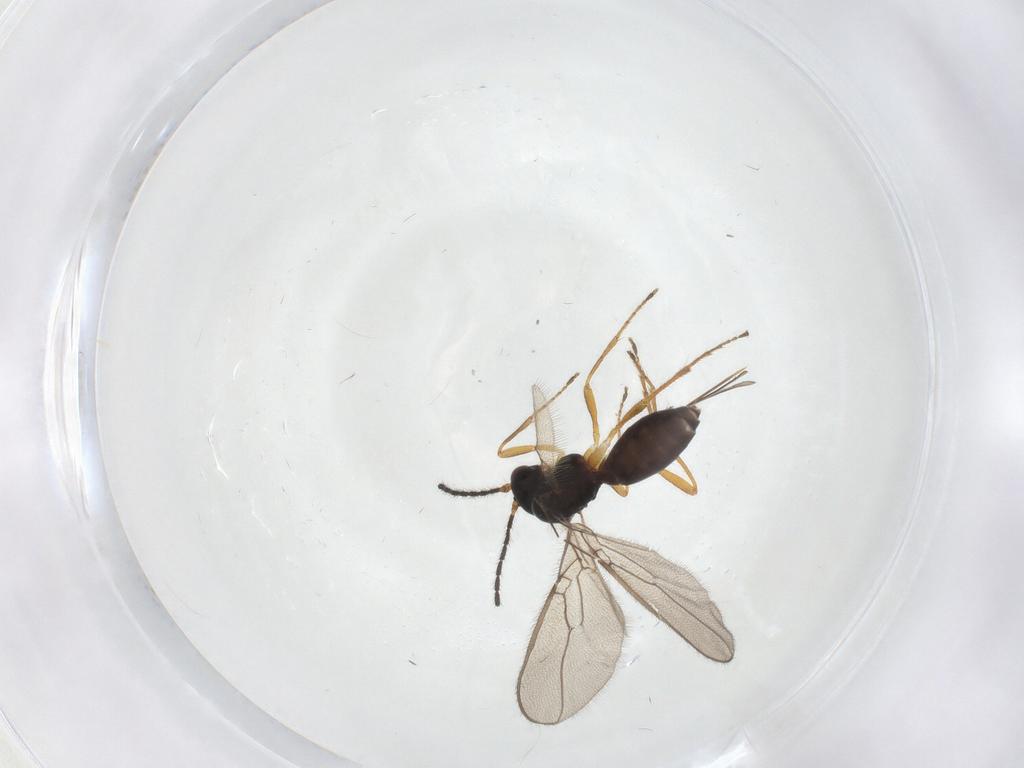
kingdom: Animalia
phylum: Arthropoda
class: Insecta
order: Hymenoptera
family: Braconidae
